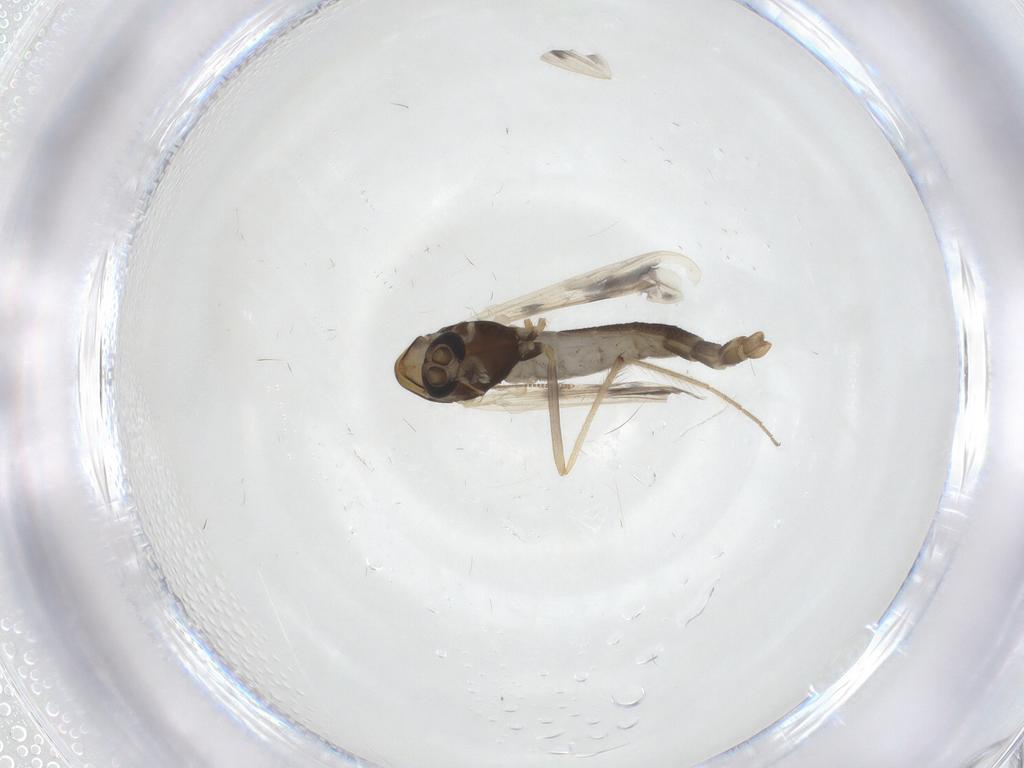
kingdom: Animalia
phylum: Arthropoda
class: Insecta
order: Diptera
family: Chironomidae
